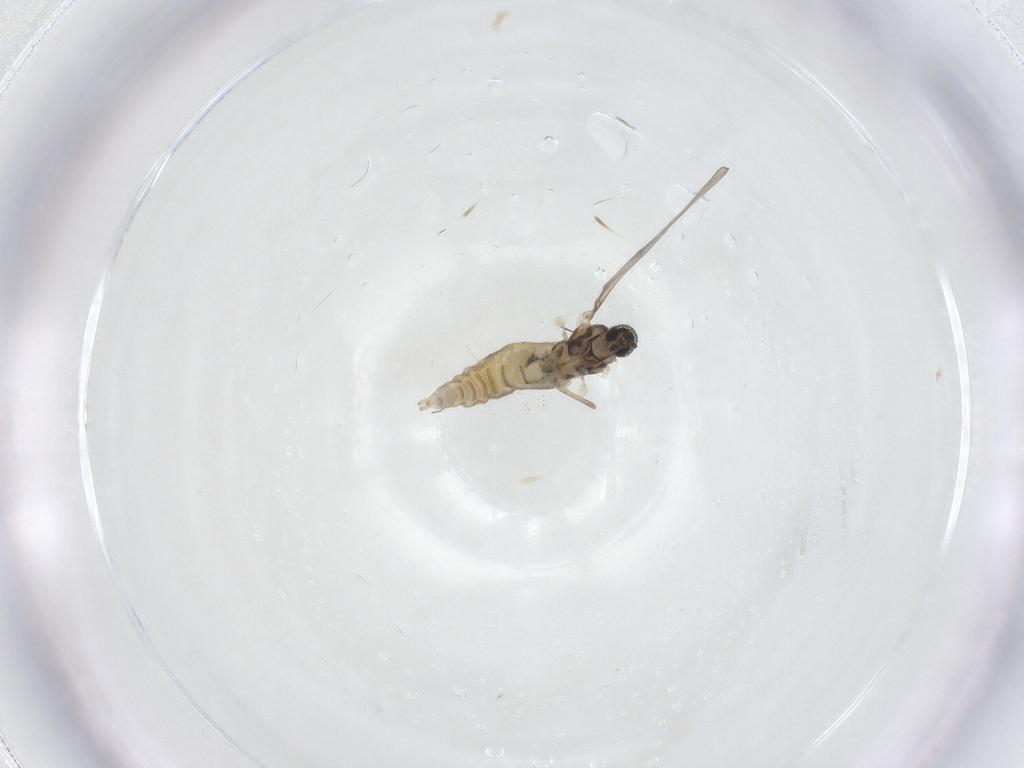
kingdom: Animalia
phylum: Arthropoda
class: Insecta
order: Diptera
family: Cecidomyiidae
